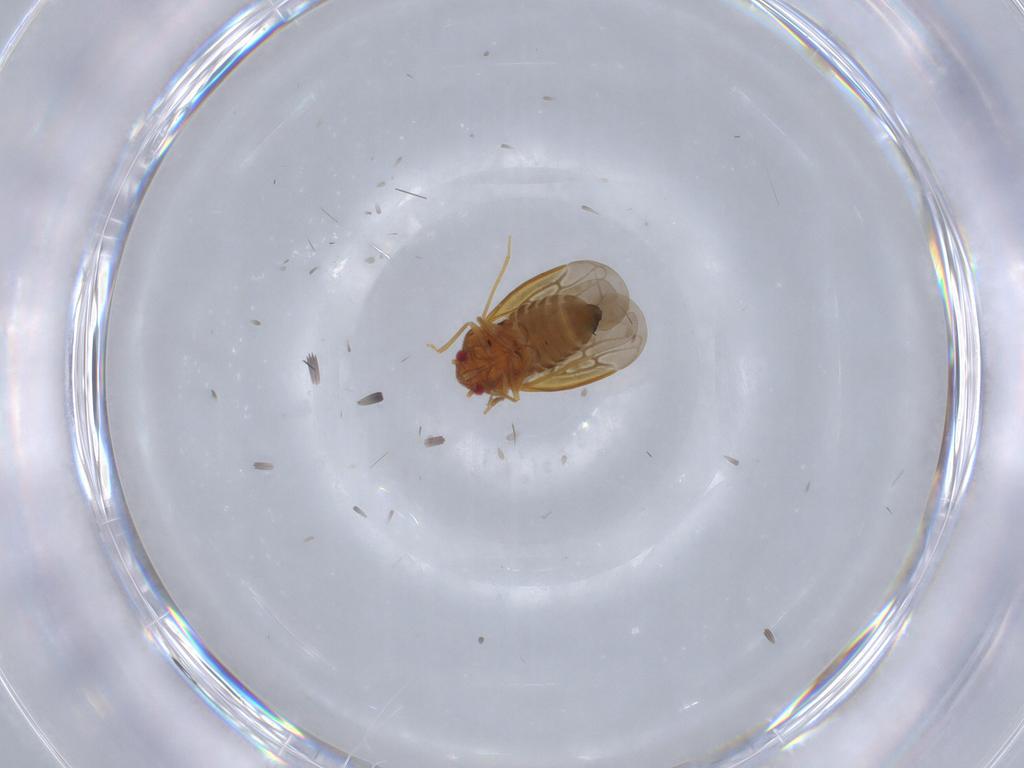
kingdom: Animalia
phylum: Arthropoda
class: Insecta
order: Hemiptera
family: Schizopteridae
